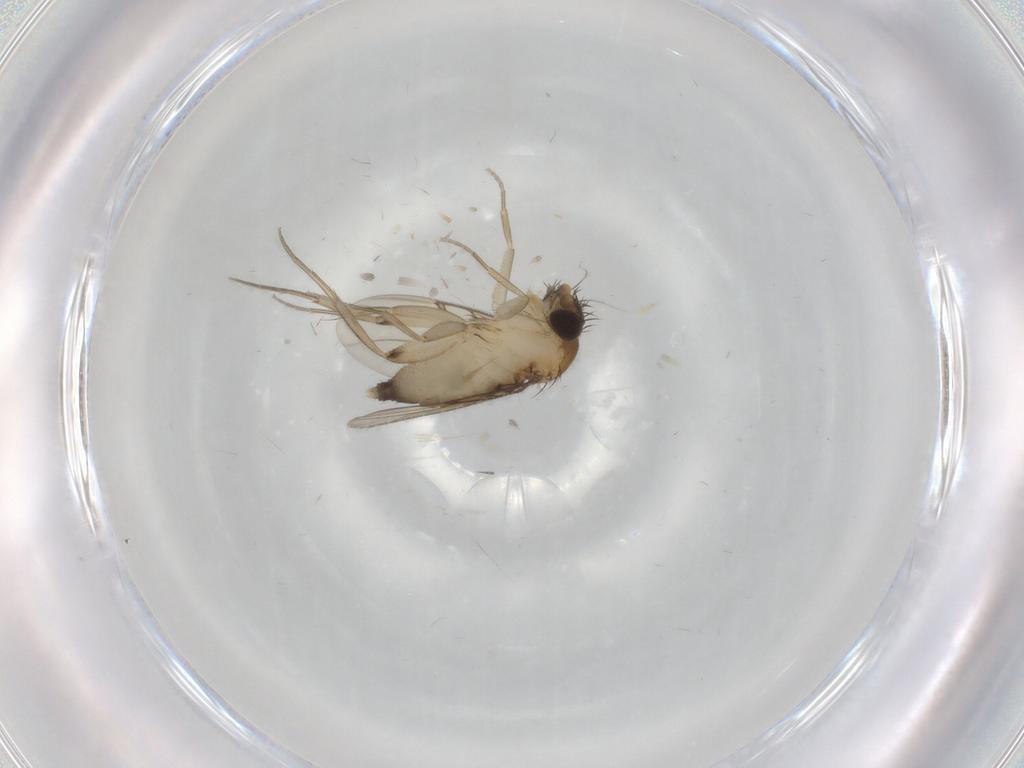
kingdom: Animalia
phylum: Arthropoda
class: Insecta
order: Diptera
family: Phoridae
